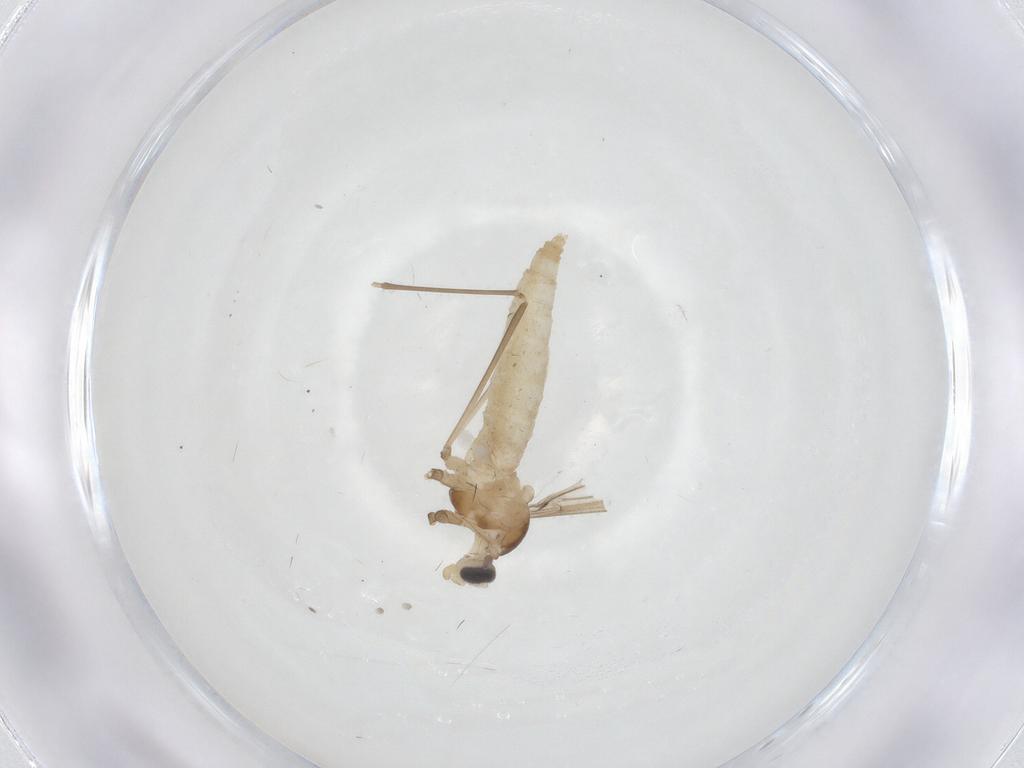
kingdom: Animalia
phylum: Arthropoda
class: Insecta
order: Diptera
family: Cecidomyiidae
